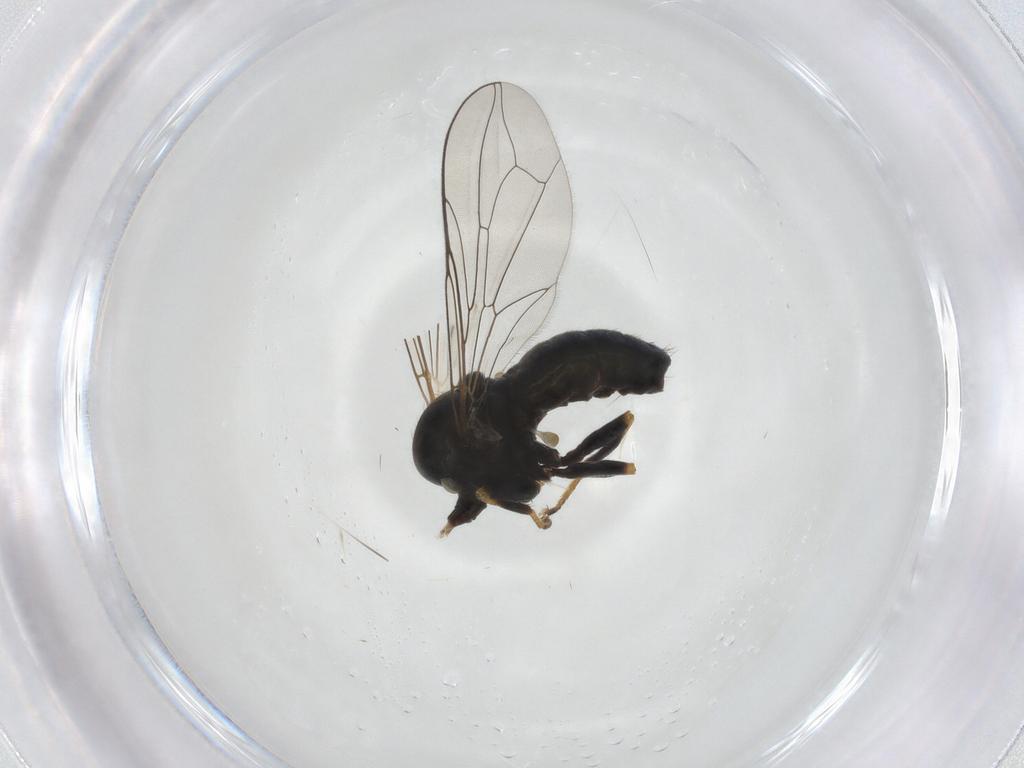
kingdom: Animalia
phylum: Arthropoda
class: Insecta
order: Diptera
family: Pipunculidae
